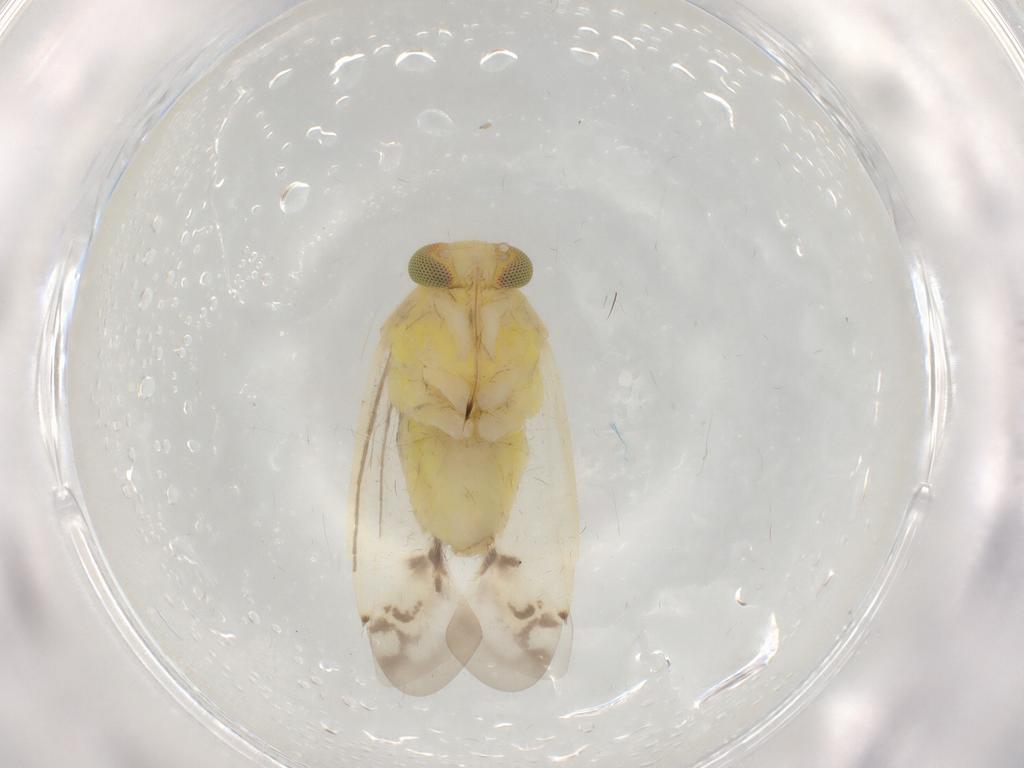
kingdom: Animalia
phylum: Arthropoda
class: Insecta
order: Hemiptera
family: Miridae
